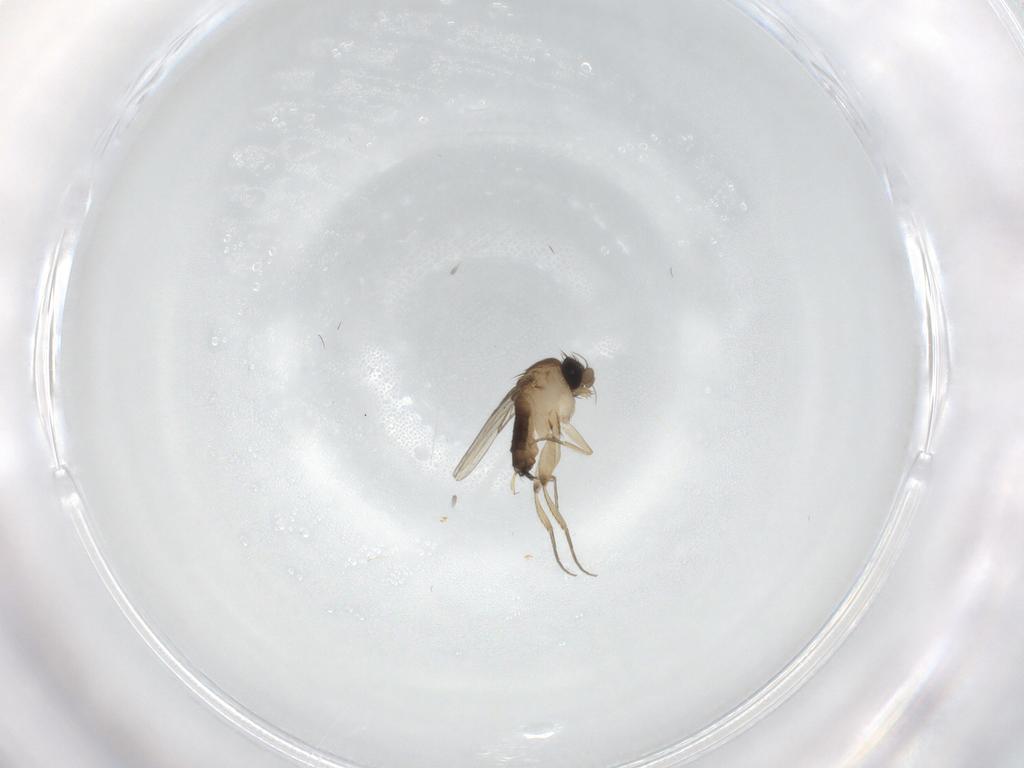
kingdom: Animalia
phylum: Arthropoda
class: Insecta
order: Diptera
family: Phoridae
